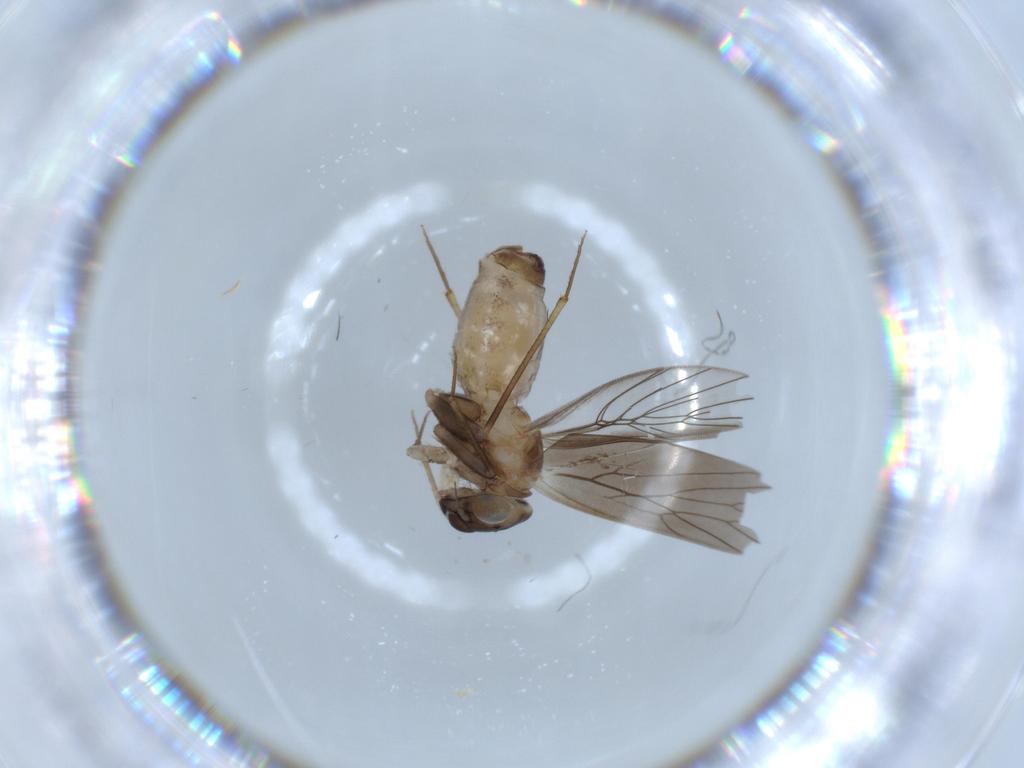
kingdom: Animalia
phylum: Arthropoda
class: Insecta
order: Psocodea
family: Lepidopsocidae
